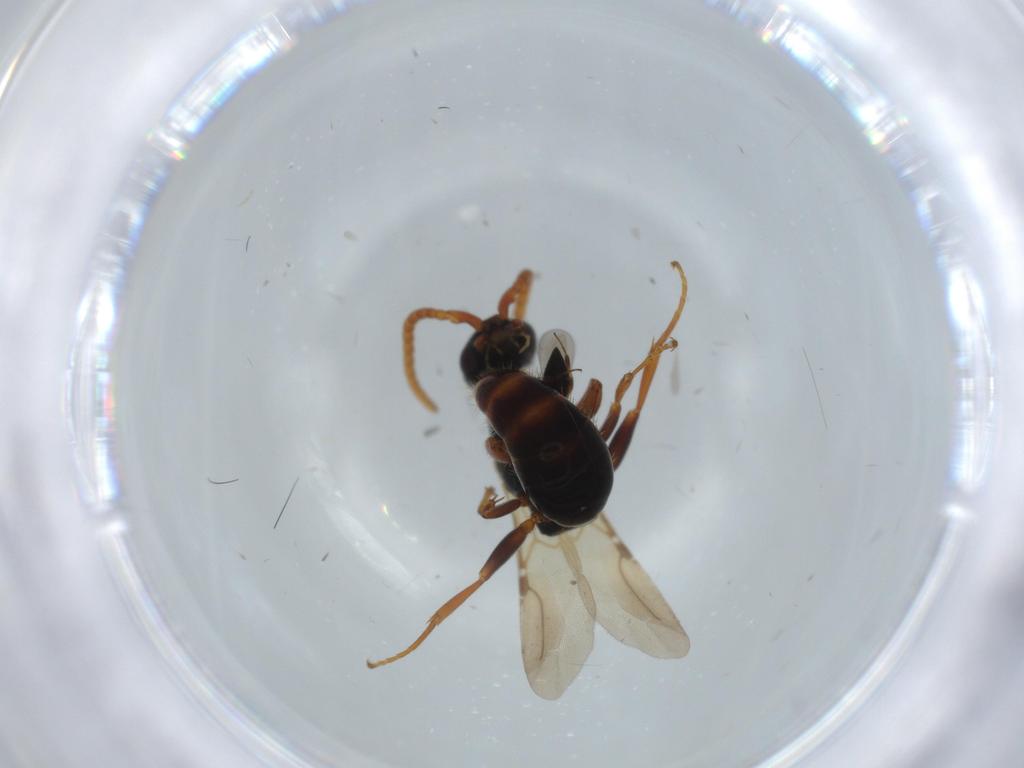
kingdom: Animalia
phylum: Arthropoda
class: Insecta
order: Hymenoptera
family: Bethylidae
